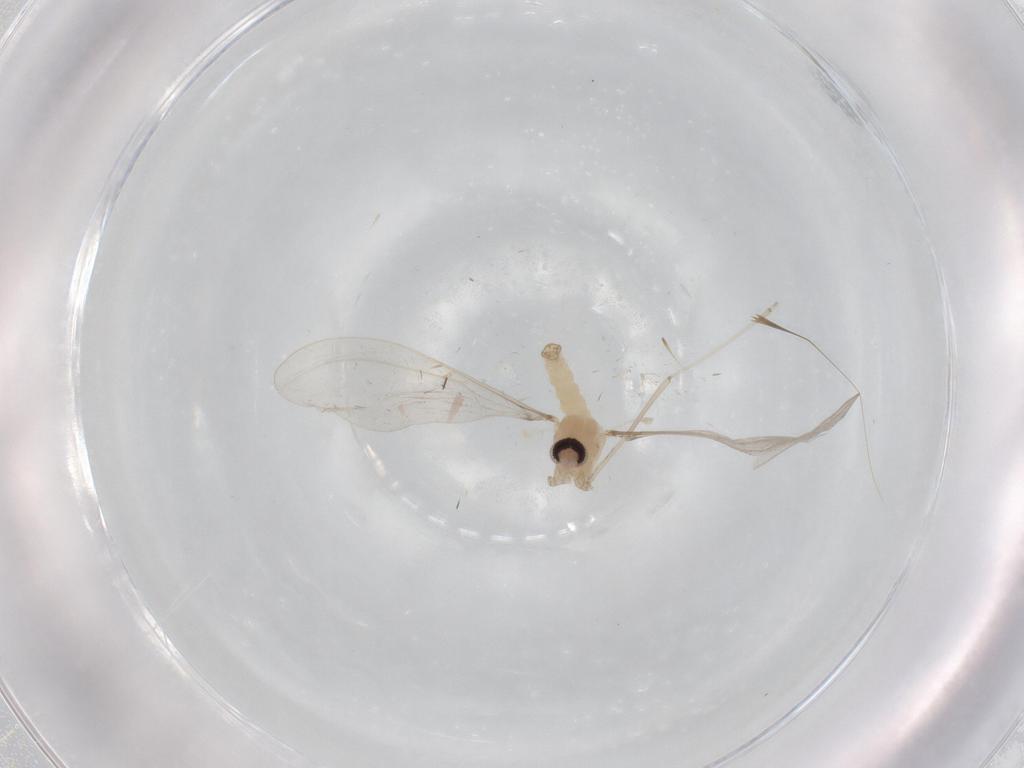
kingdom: Animalia
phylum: Arthropoda
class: Insecta
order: Diptera
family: Cecidomyiidae
